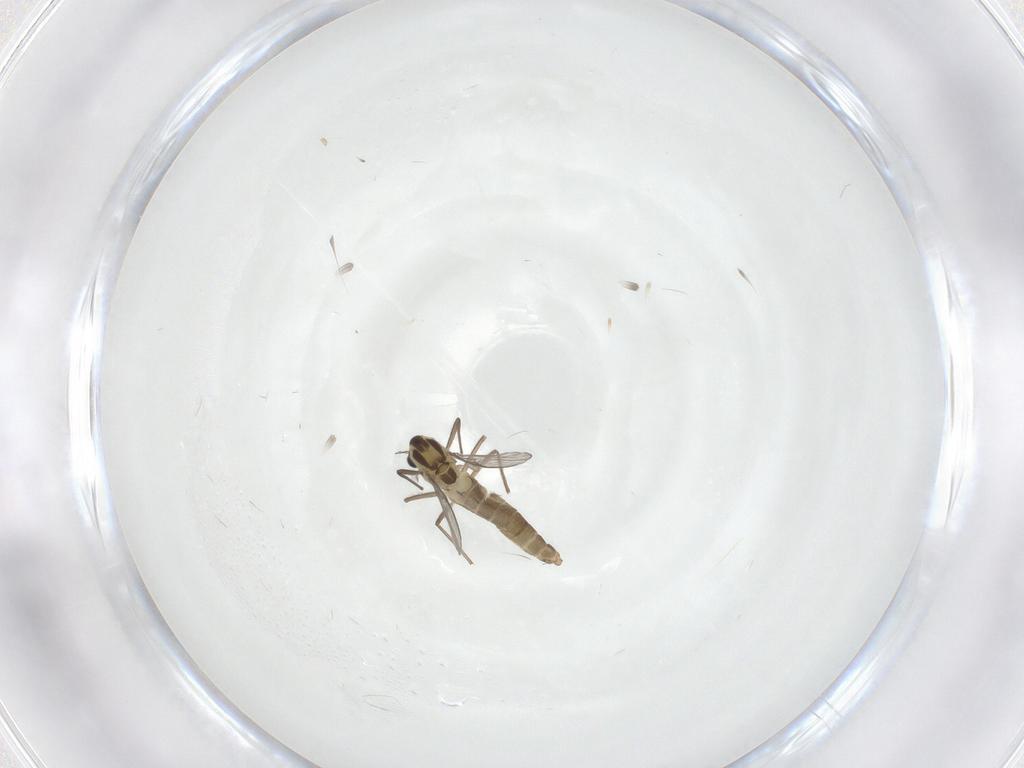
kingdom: Animalia
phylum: Arthropoda
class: Insecta
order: Diptera
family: Chironomidae
